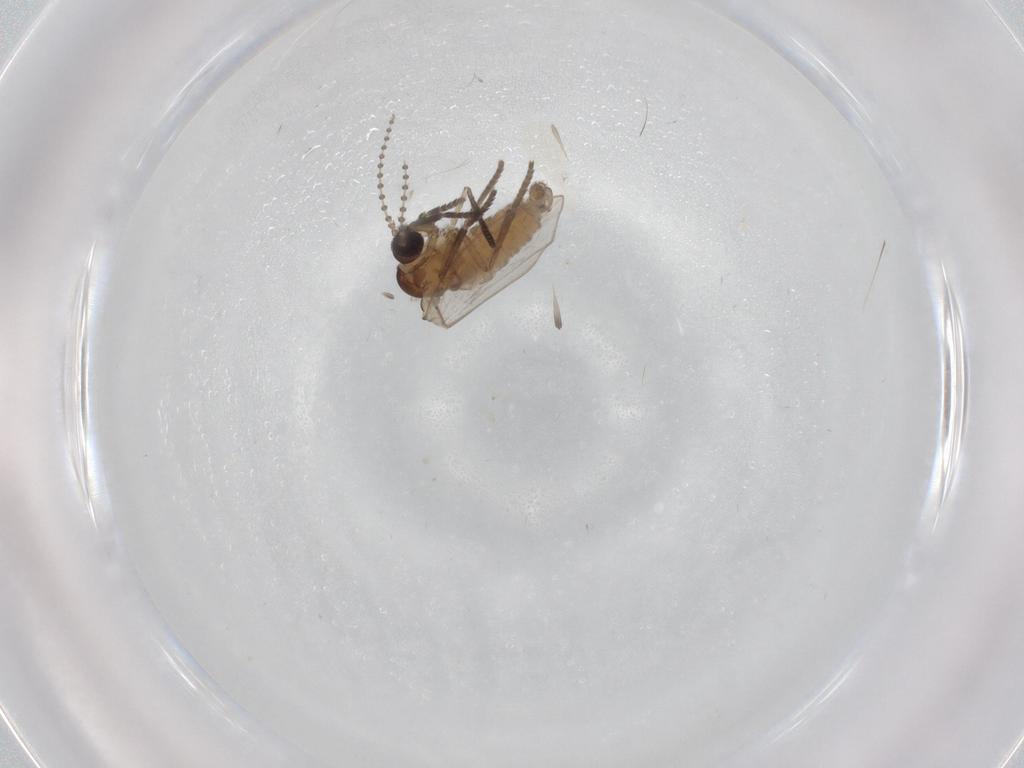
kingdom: Animalia
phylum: Arthropoda
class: Insecta
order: Diptera
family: Psychodidae
